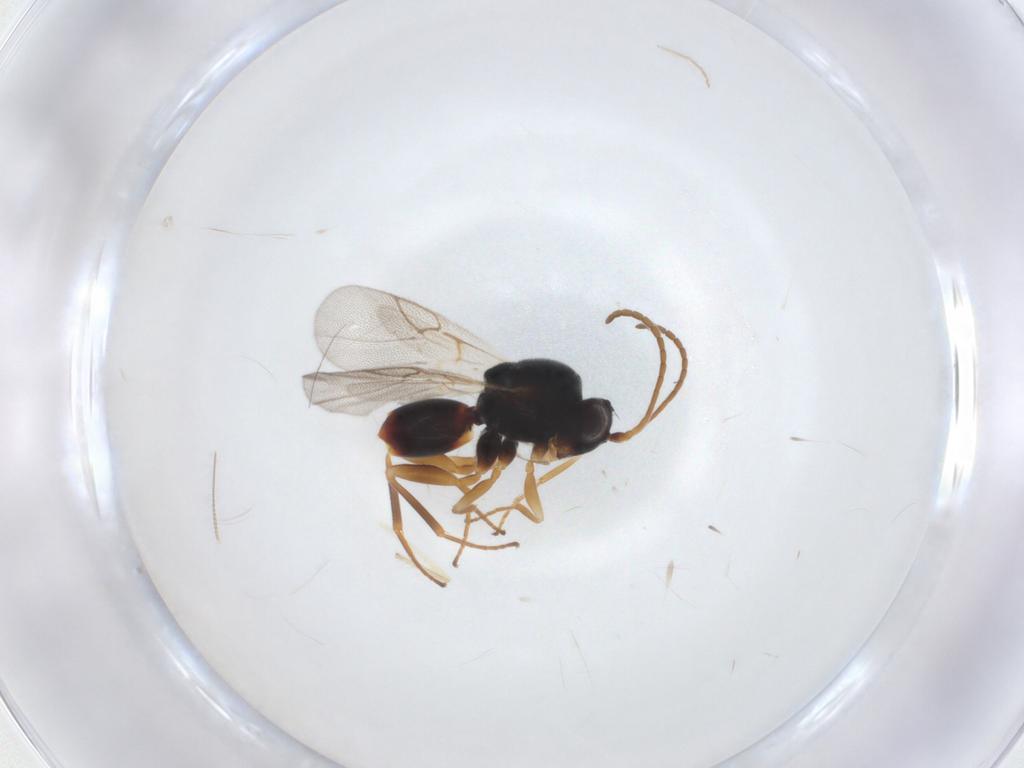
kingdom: Animalia
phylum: Arthropoda
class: Insecta
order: Hymenoptera
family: Cynipidae
